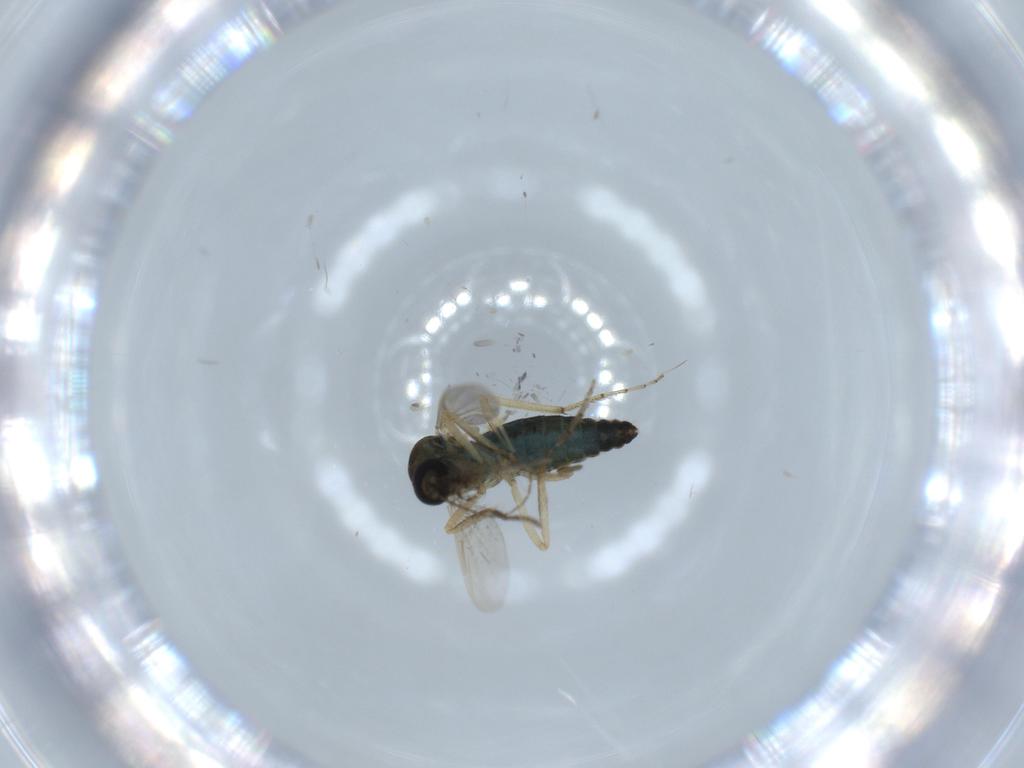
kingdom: Animalia
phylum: Arthropoda
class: Insecta
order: Diptera
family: Ceratopogonidae
